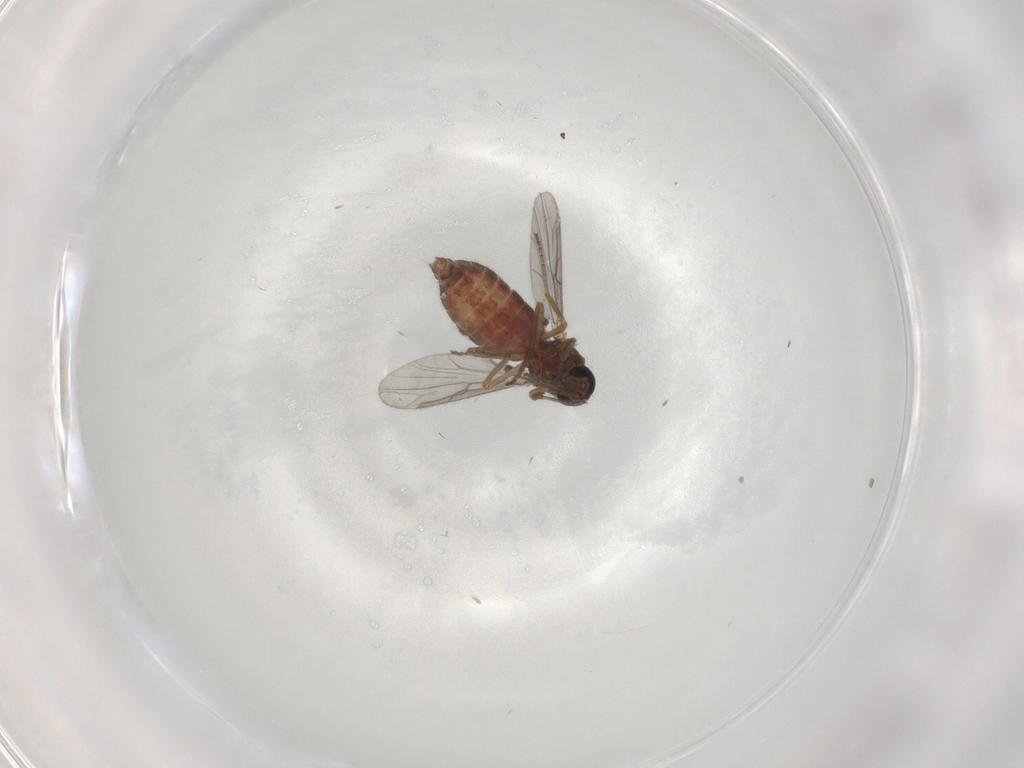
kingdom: Animalia
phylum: Arthropoda
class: Insecta
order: Diptera
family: Ceratopogonidae
